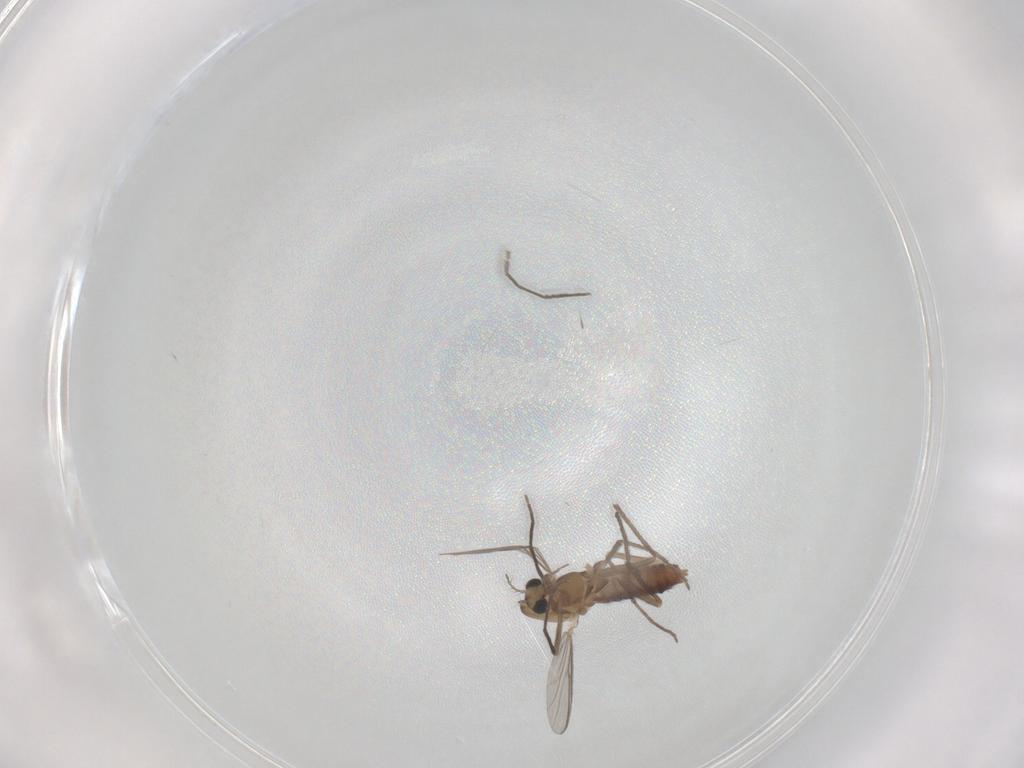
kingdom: Animalia
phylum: Arthropoda
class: Insecta
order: Diptera
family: Chironomidae
